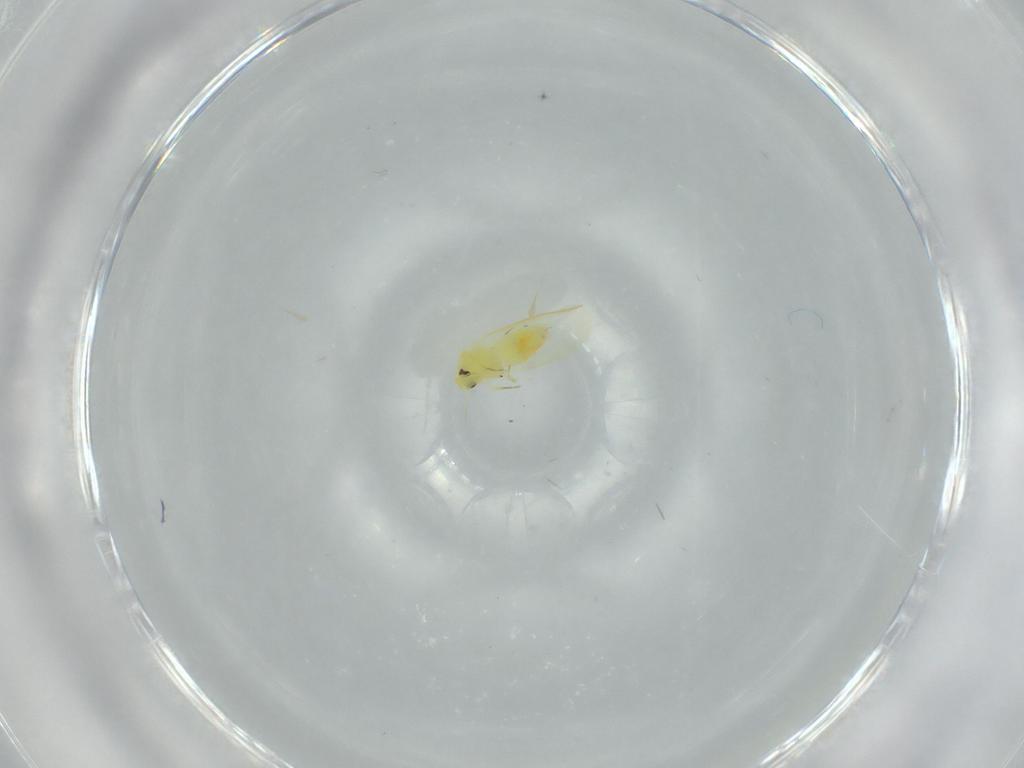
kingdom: Animalia
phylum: Arthropoda
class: Insecta
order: Hemiptera
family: Aleyrodidae
